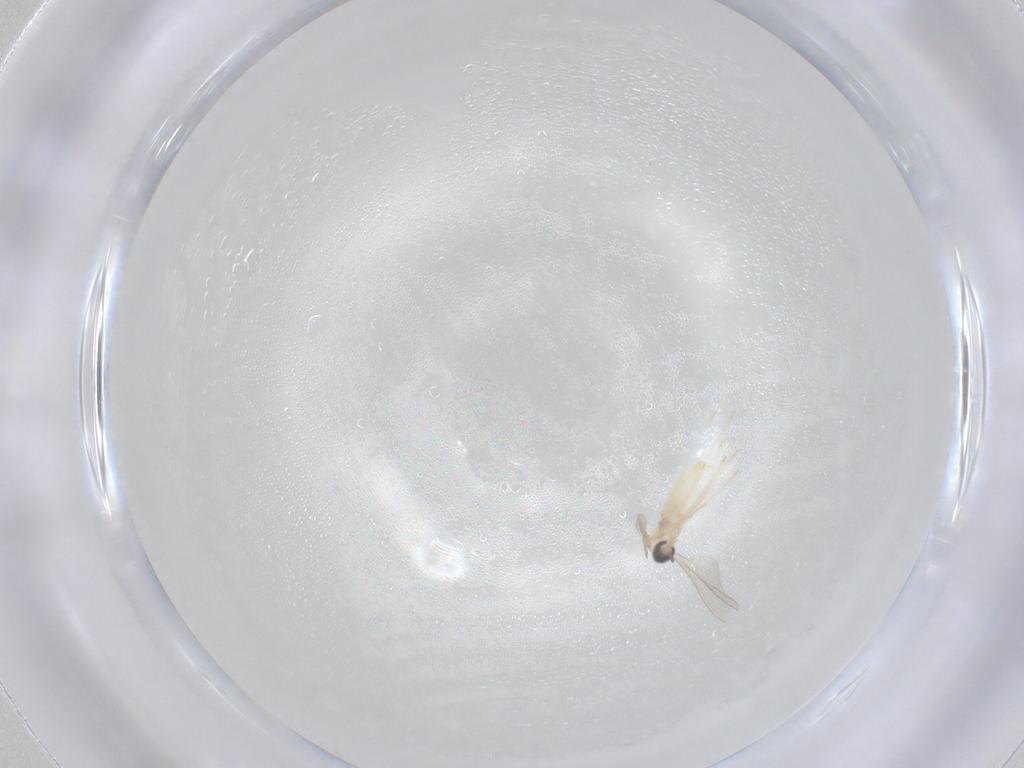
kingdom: Animalia
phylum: Arthropoda
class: Insecta
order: Diptera
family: Cecidomyiidae
